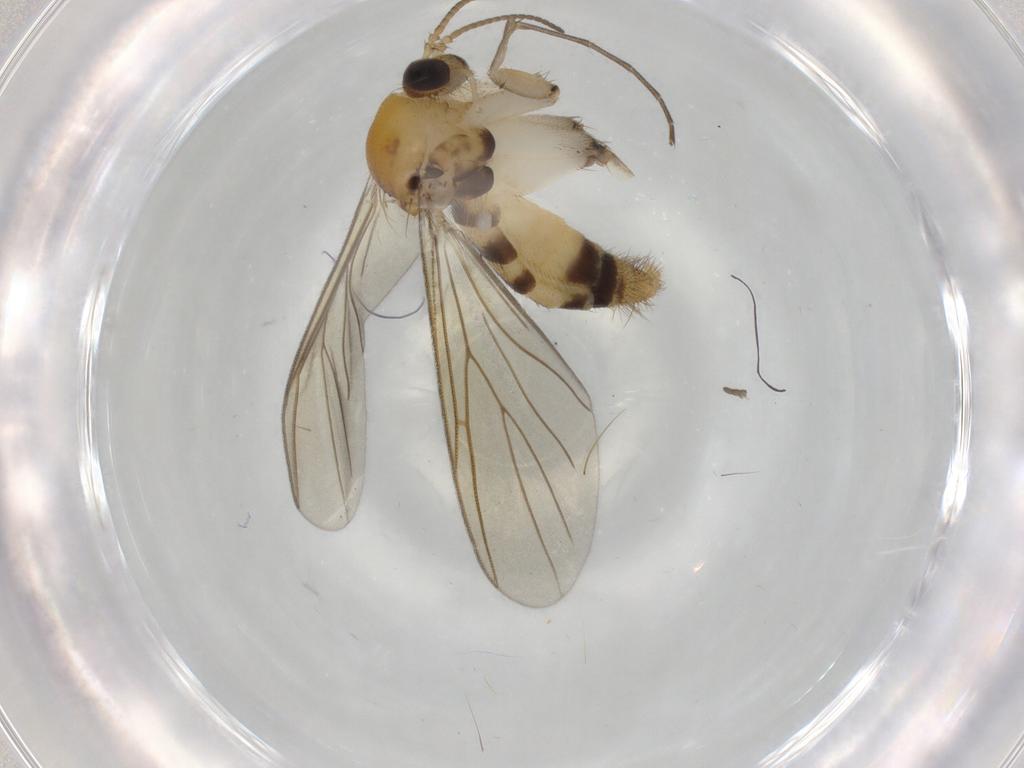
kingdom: Animalia
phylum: Arthropoda
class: Insecta
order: Diptera
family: Mycetophilidae
